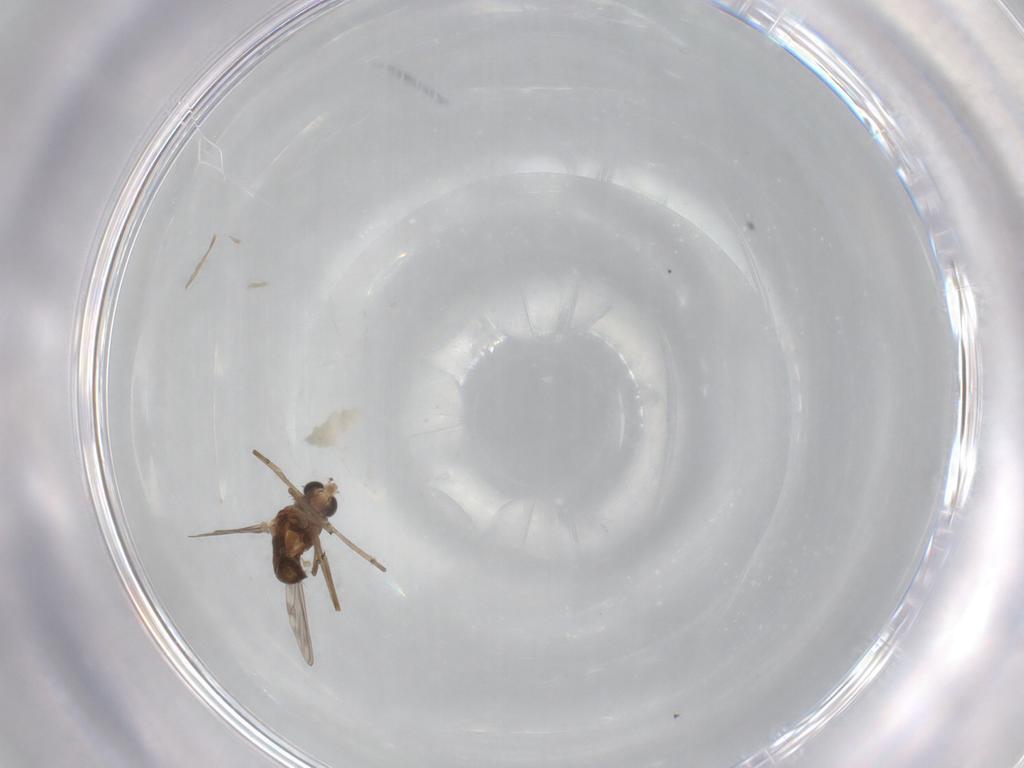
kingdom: Animalia
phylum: Arthropoda
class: Insecta
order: Diptera
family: Chironomidae
